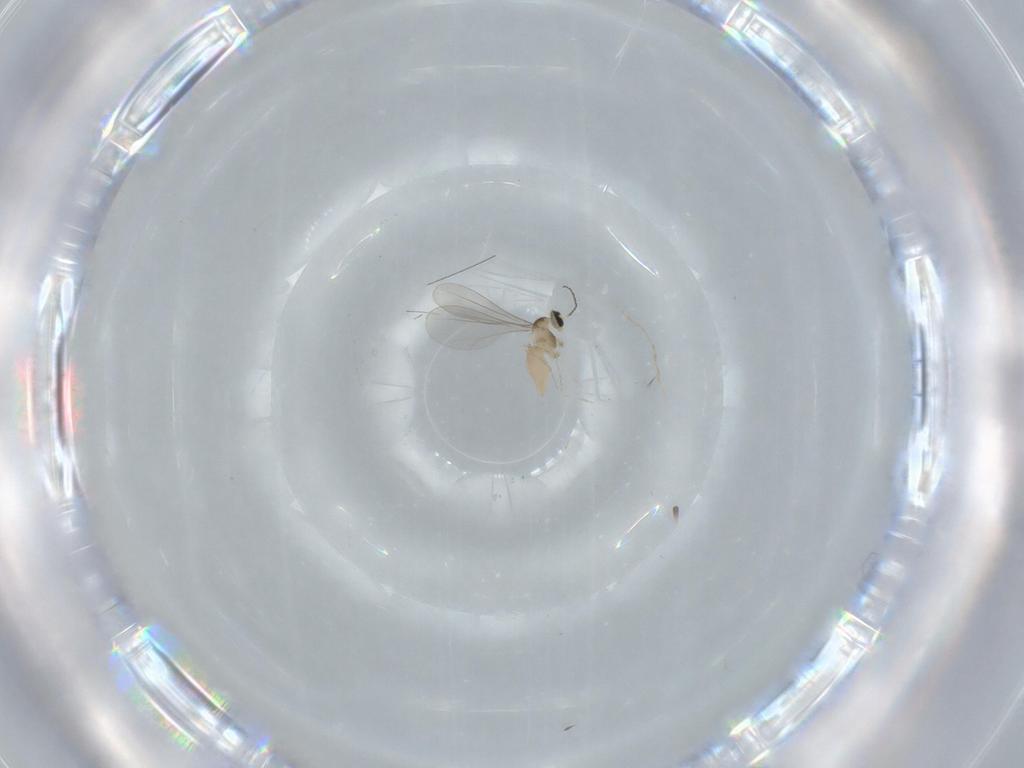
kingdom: Animalia
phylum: Arthropoda
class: Insecta
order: Diptera
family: Cecidomyiidae
